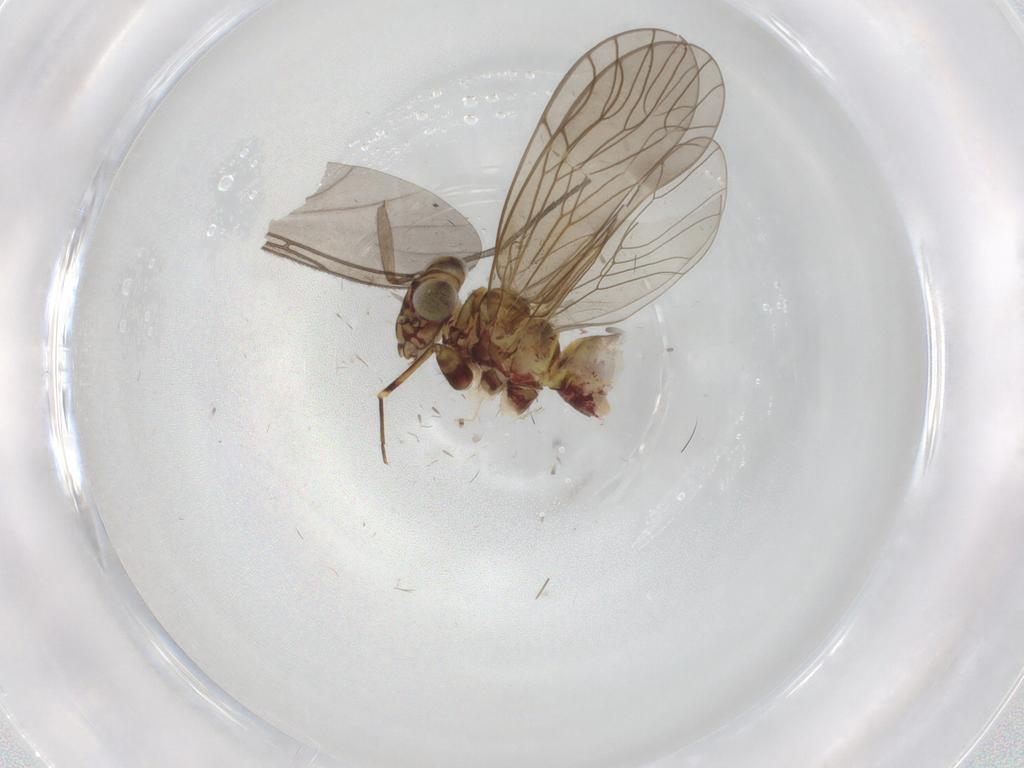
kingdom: Animalia
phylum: Arthropoda
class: Insecta
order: Psocodea
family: Philotarsidae
